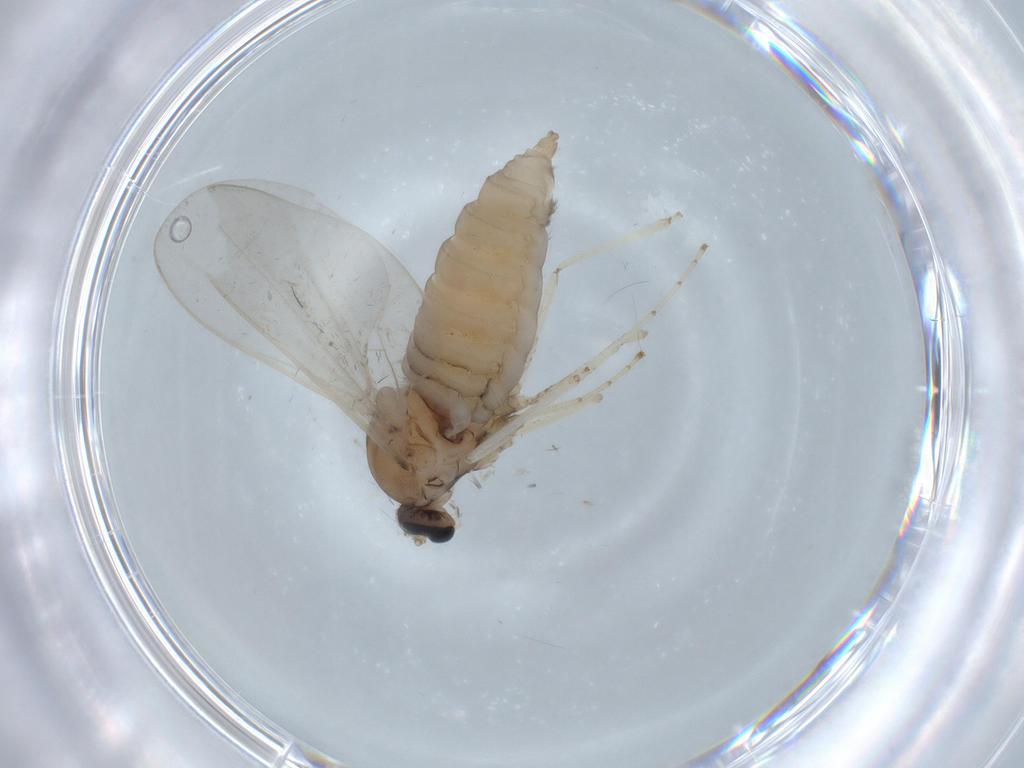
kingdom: Animalia
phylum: Arthropoda
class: Insecta
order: Diptera
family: Cecidomyiidae
